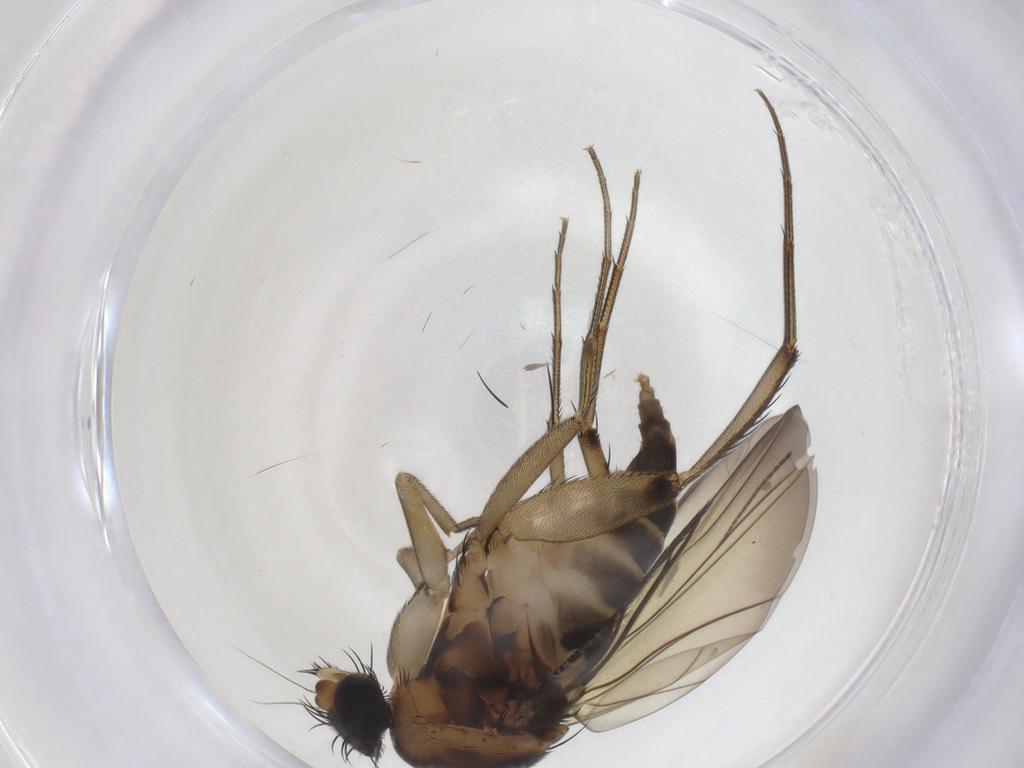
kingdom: Animalia
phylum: Arthropoda
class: Insecta
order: Diptera
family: Phoridae
